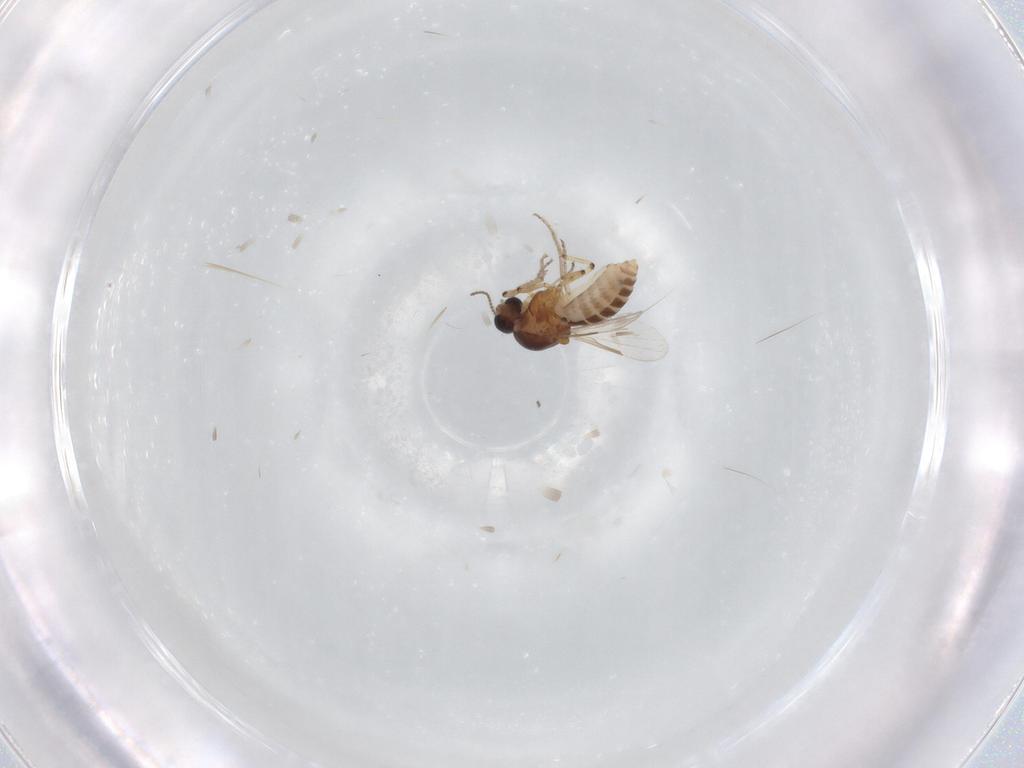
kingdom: Animalia
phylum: Arthropoda
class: Insecta
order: Diptera
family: Ceratopogonidae
